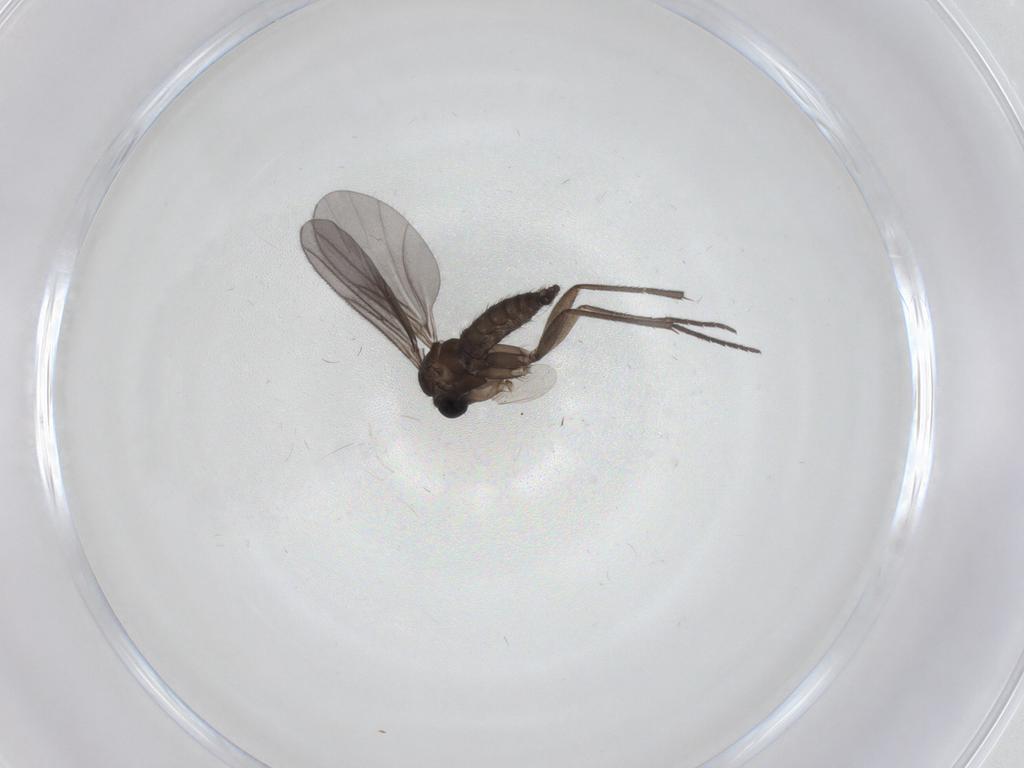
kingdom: Animalia
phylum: Arthropoda
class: Insecta
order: Diptera
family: Sciaridae
